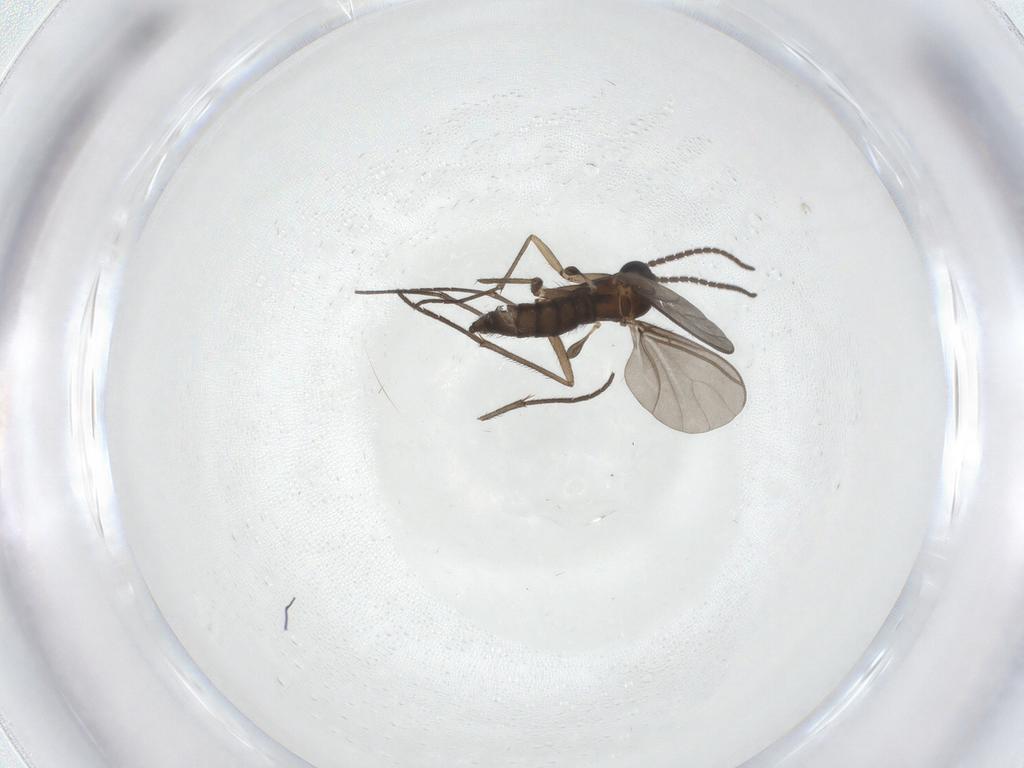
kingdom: Animalia
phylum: Arthropoda
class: Insecta
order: Diptera
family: Sciaridae
